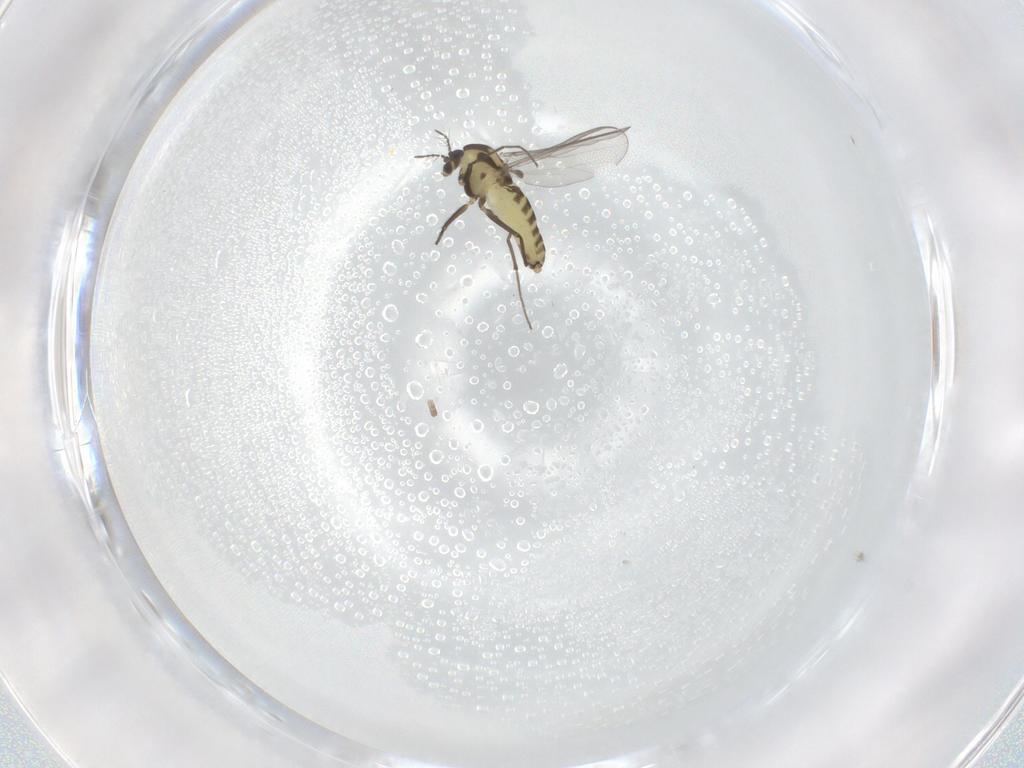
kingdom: Animalia
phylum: Arthropoda
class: Insecta
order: Diptera
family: Chironomidae
